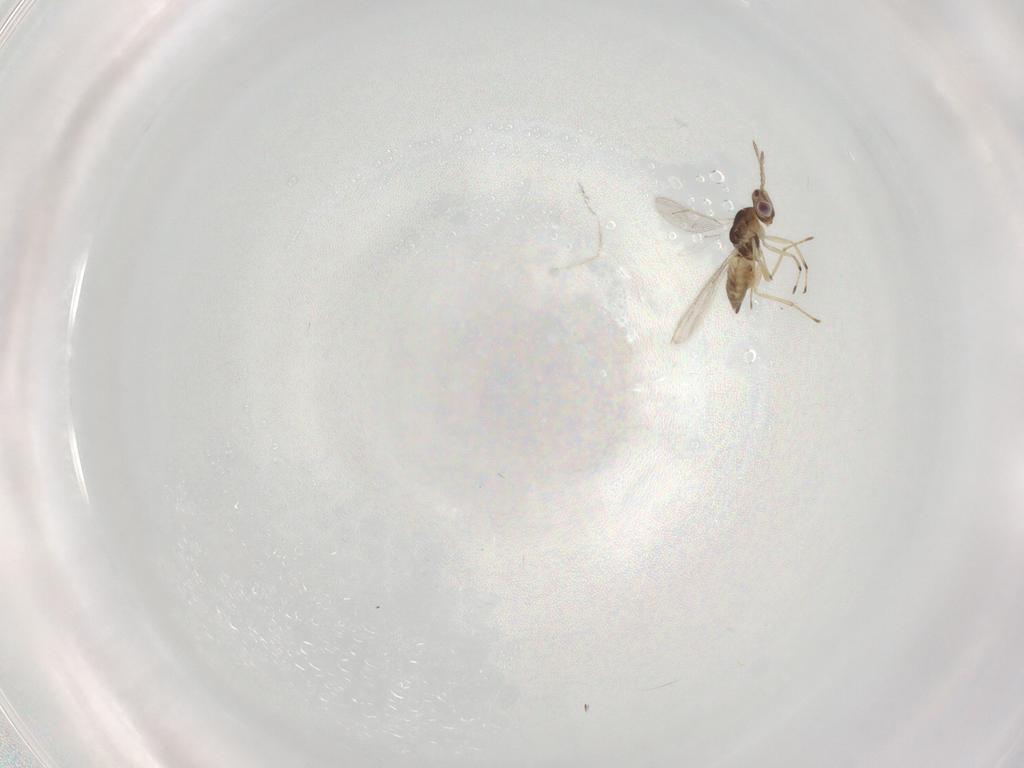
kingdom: Animalia
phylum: Arthropoda
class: Insecta
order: Hymenoptera
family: Eulophidae
